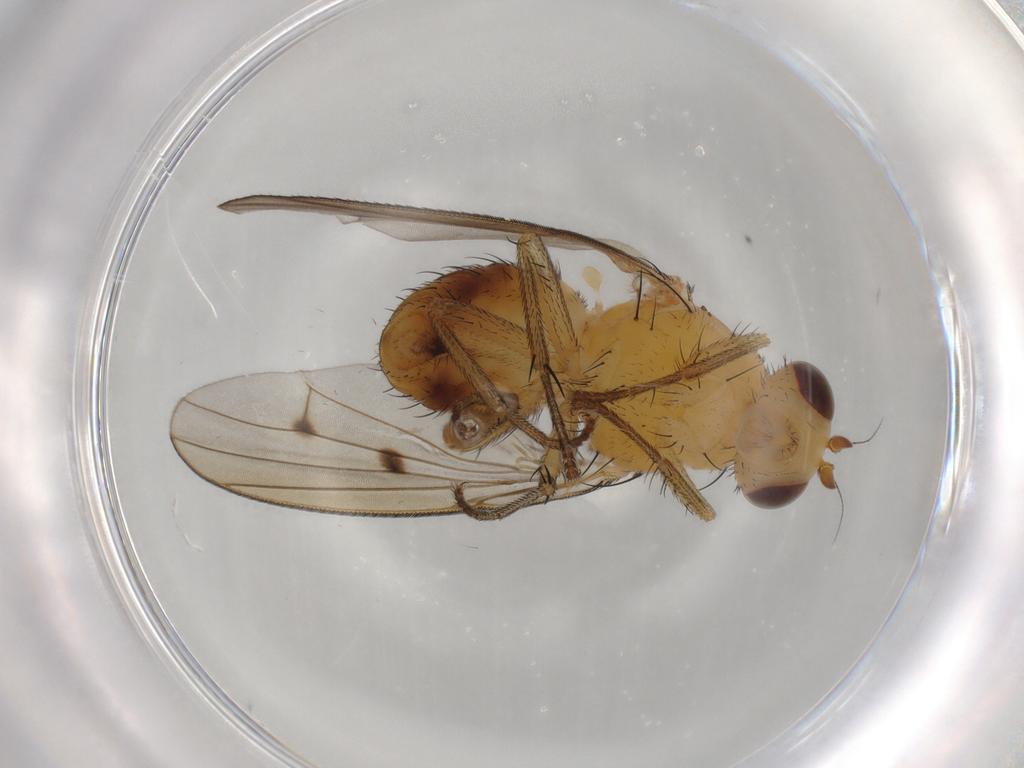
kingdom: Animalia
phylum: Arthropoda
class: Insecta
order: Diptera
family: Lauxaniidae
